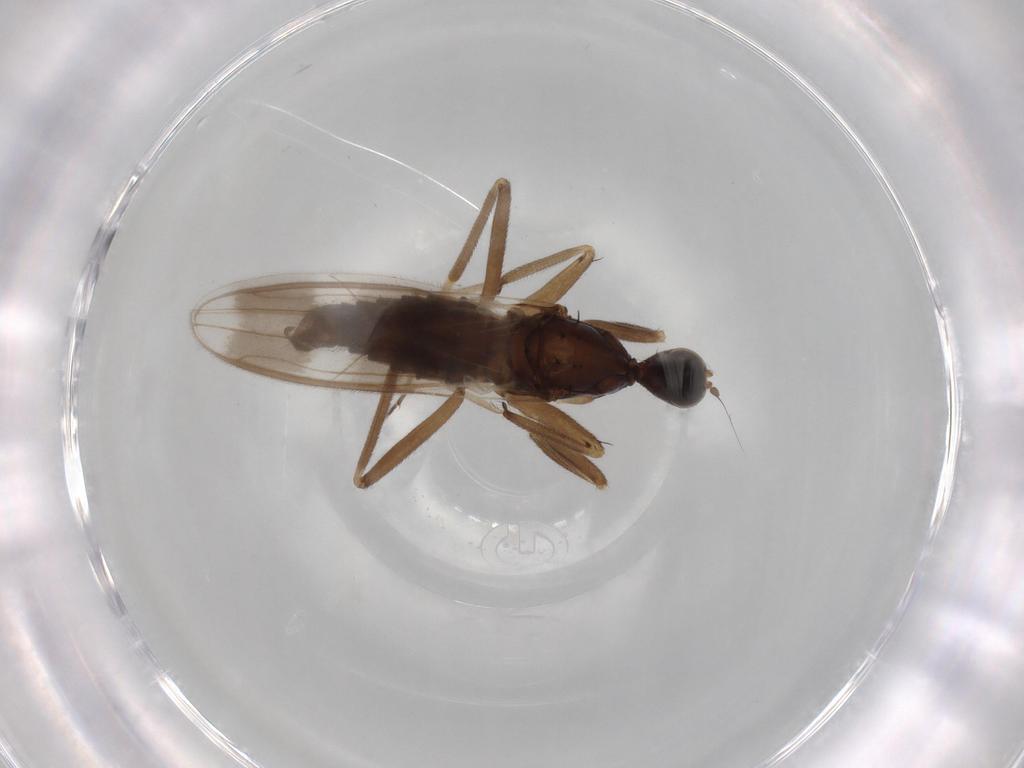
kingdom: Animalia
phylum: Arthropoda
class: Insecta
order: Diptera
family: Hybotidae
